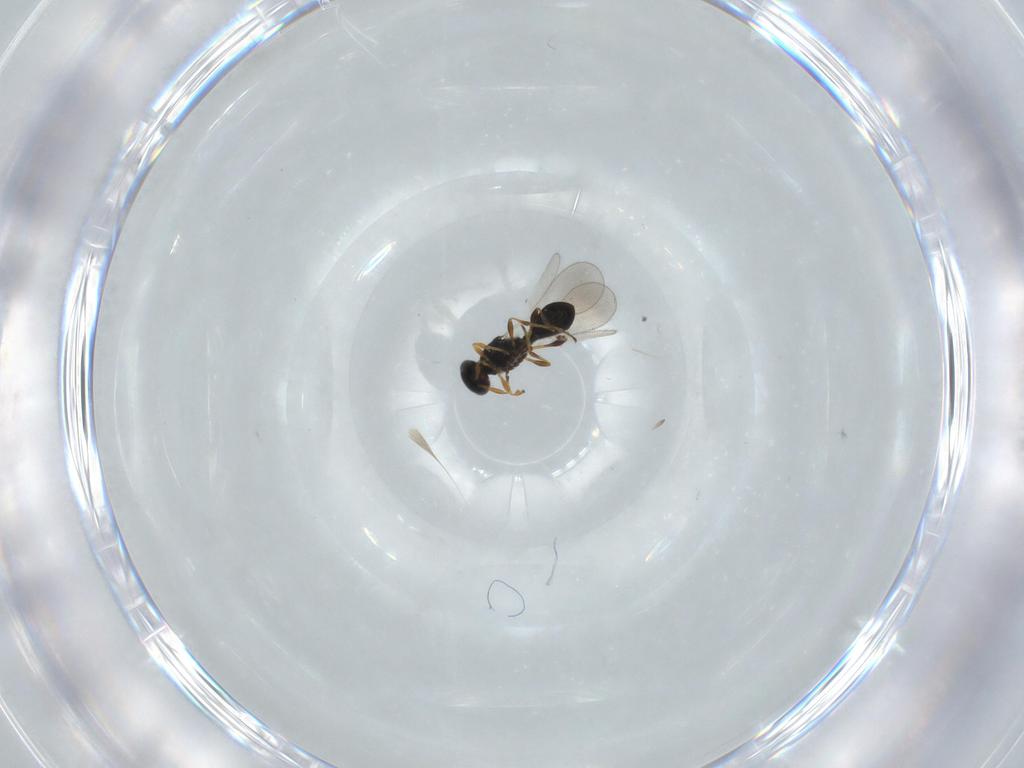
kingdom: Animalia
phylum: Arthropoda
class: Insecta
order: Hymenoptera
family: Platygastridae
